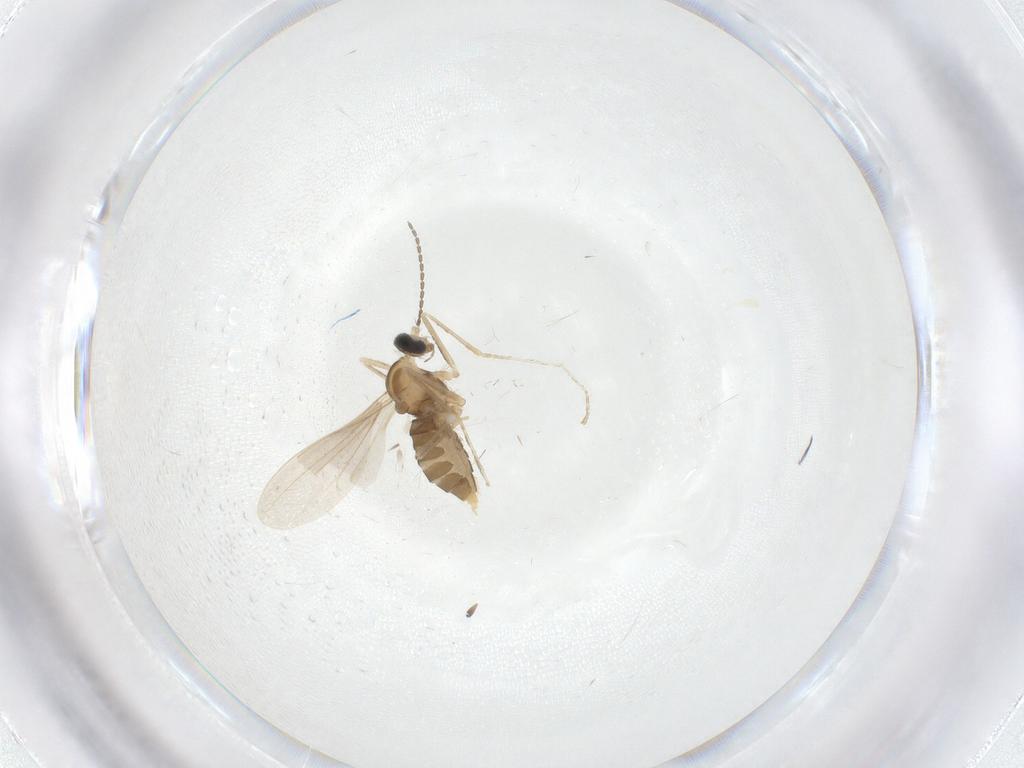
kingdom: Animalia
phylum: Arthropoda
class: Insecta
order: Diptera
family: Cecidomyiidae
